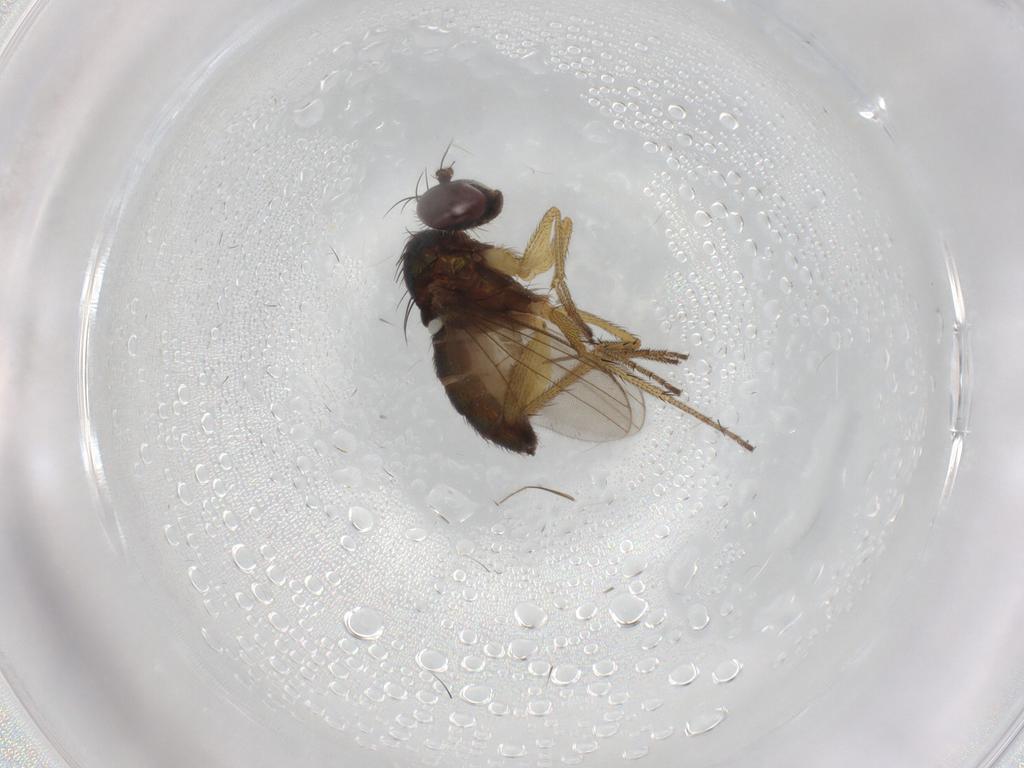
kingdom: Animalia
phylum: Arthropoda
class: Insecta
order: Diptera
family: Dolichopodidae
